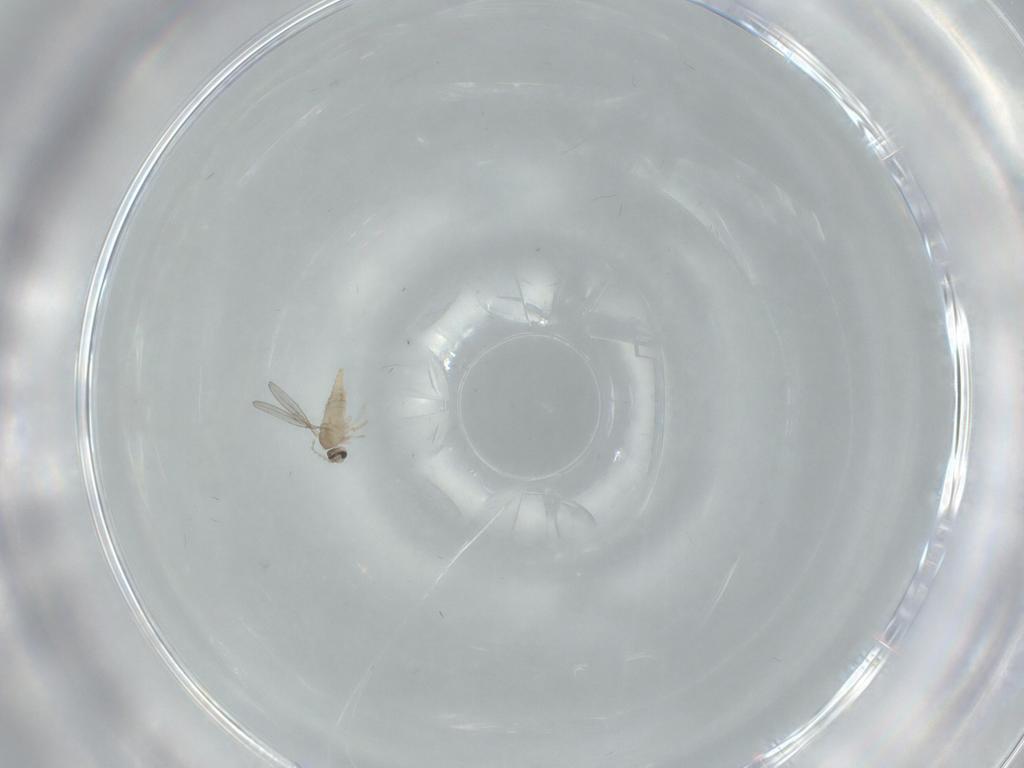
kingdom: Animalia
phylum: Arthropoda
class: Insecta
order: Diptera
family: Cecidomyiidae
